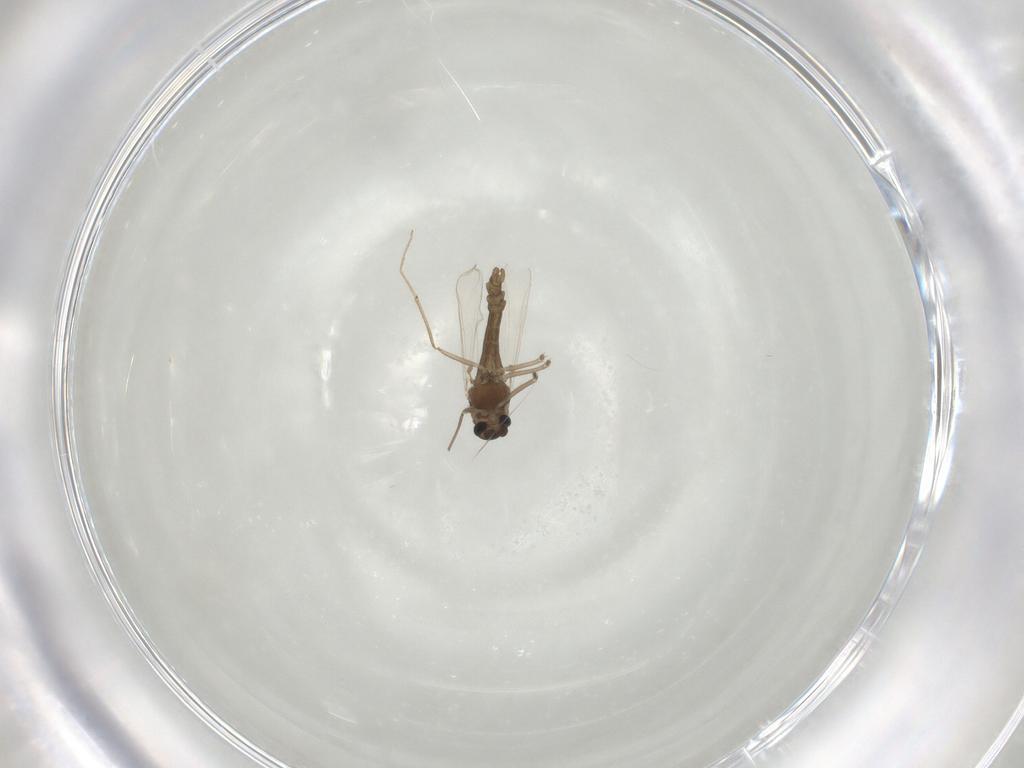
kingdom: Animalia
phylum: Arthropoda
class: Insecta
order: Diptera
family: Chironomidae
